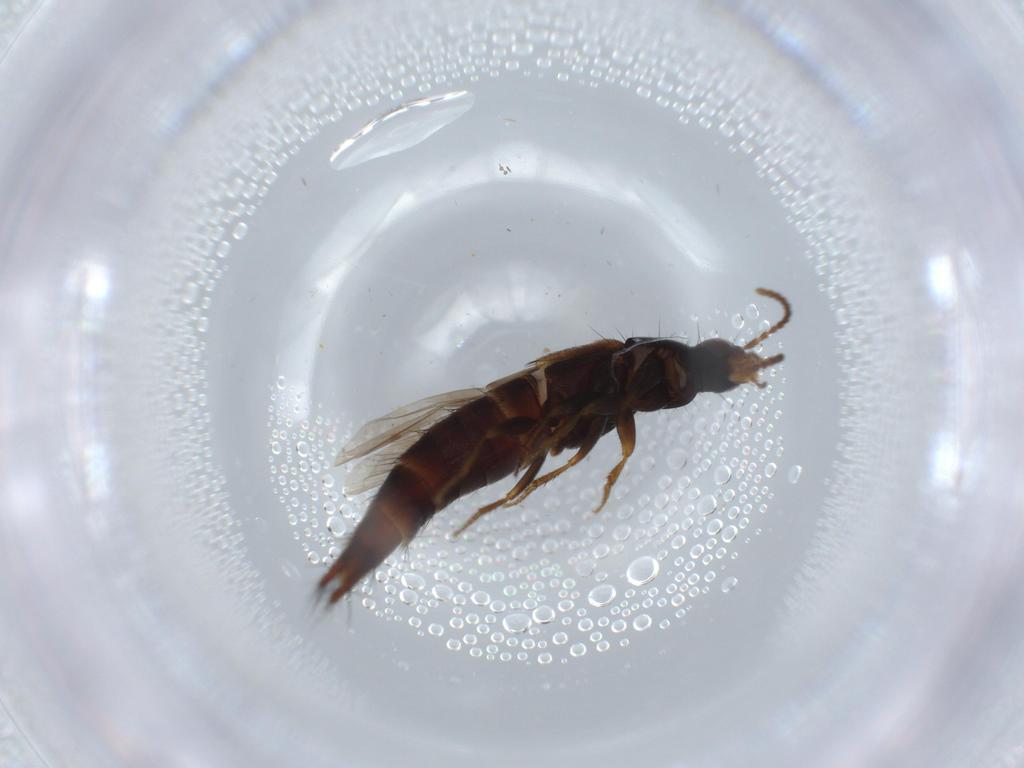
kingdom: Animalia
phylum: Arthropoda
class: Insecta
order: Coleoptera
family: Staphylinidae
